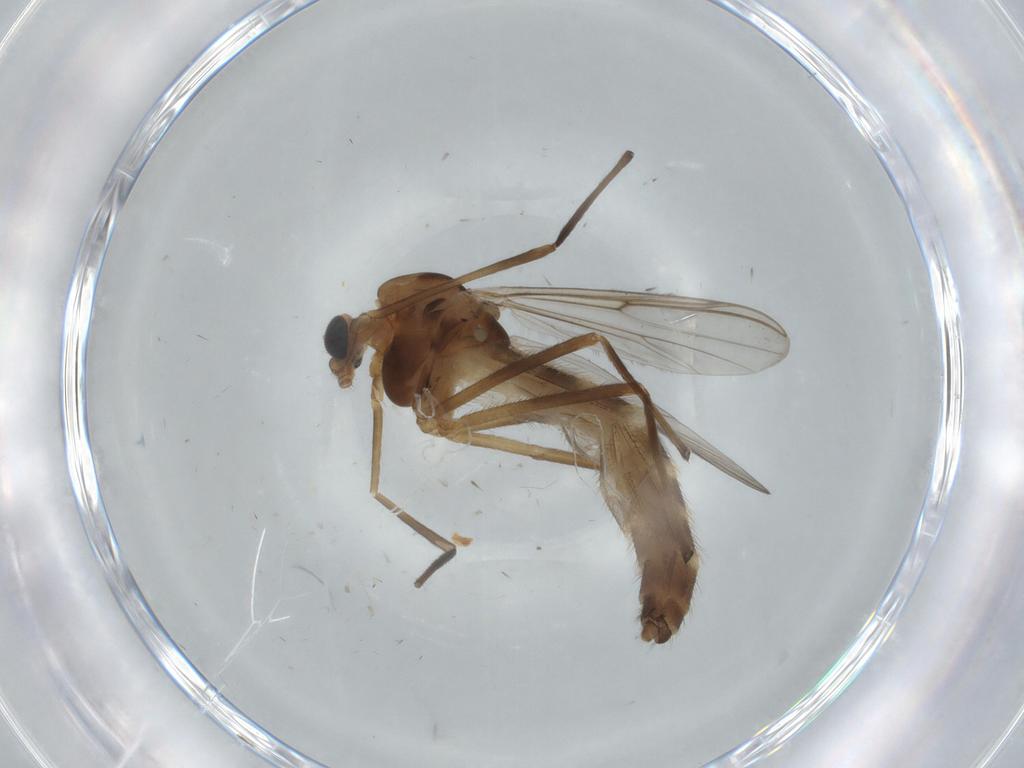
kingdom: Animalia
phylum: Arthropoda
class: Insecta
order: Diptera
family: Chironomidae
